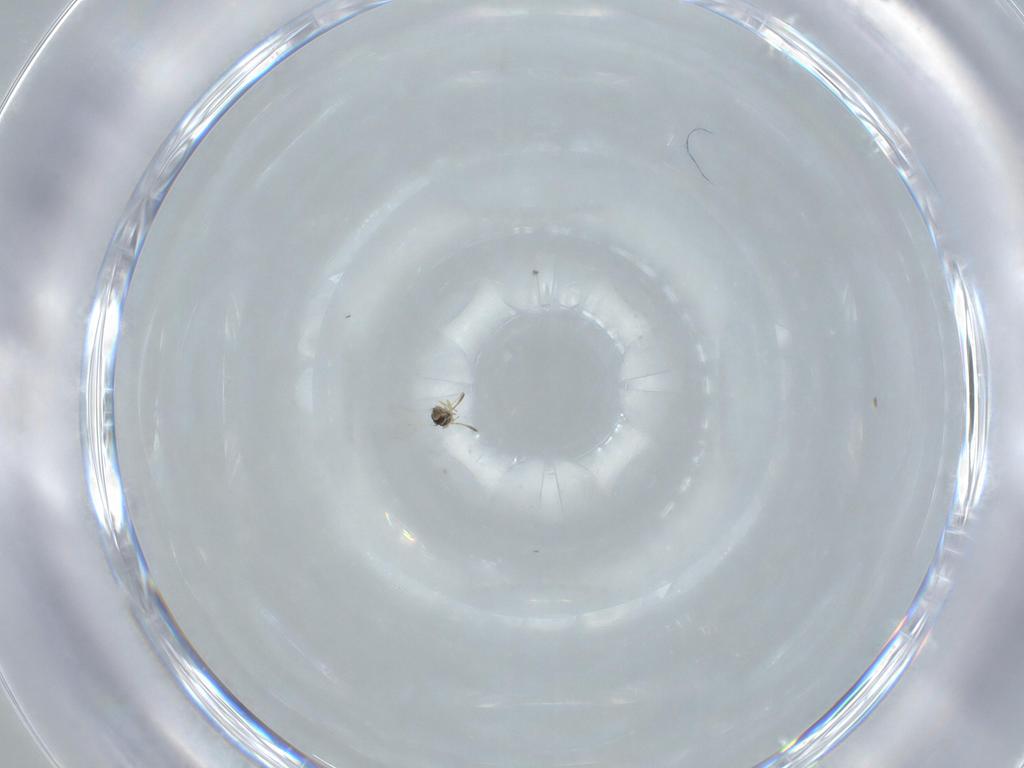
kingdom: Animalia
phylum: Arthropoda
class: Insecta
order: Hymenoptera
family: Scelionidae
